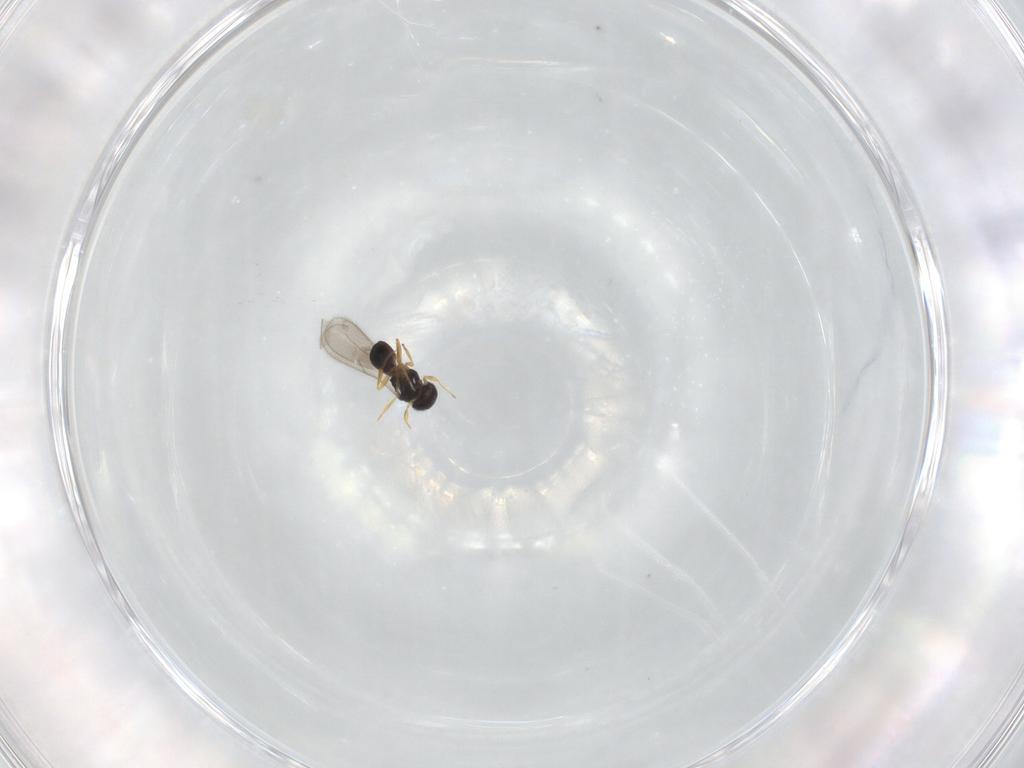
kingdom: Animalia
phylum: Arthropoda
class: Insecta
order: Hymenoptera
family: Scelionidae
